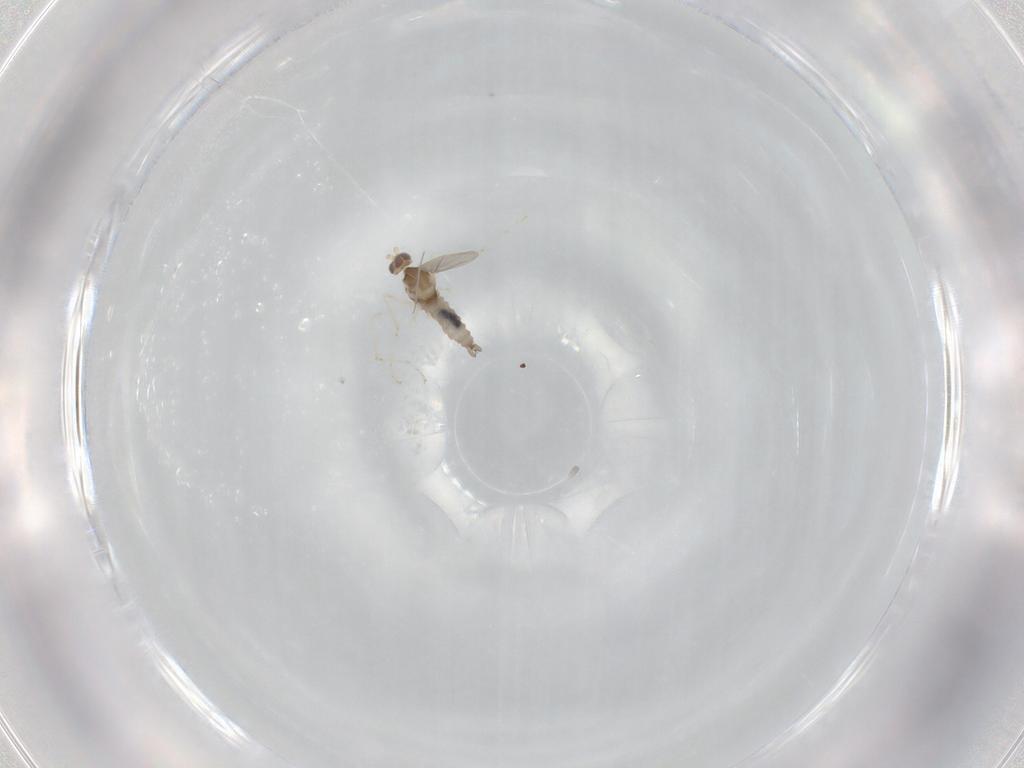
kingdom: Animalia
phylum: Arthropoda
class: Insecta
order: Diptera
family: Cecidomyiidae
